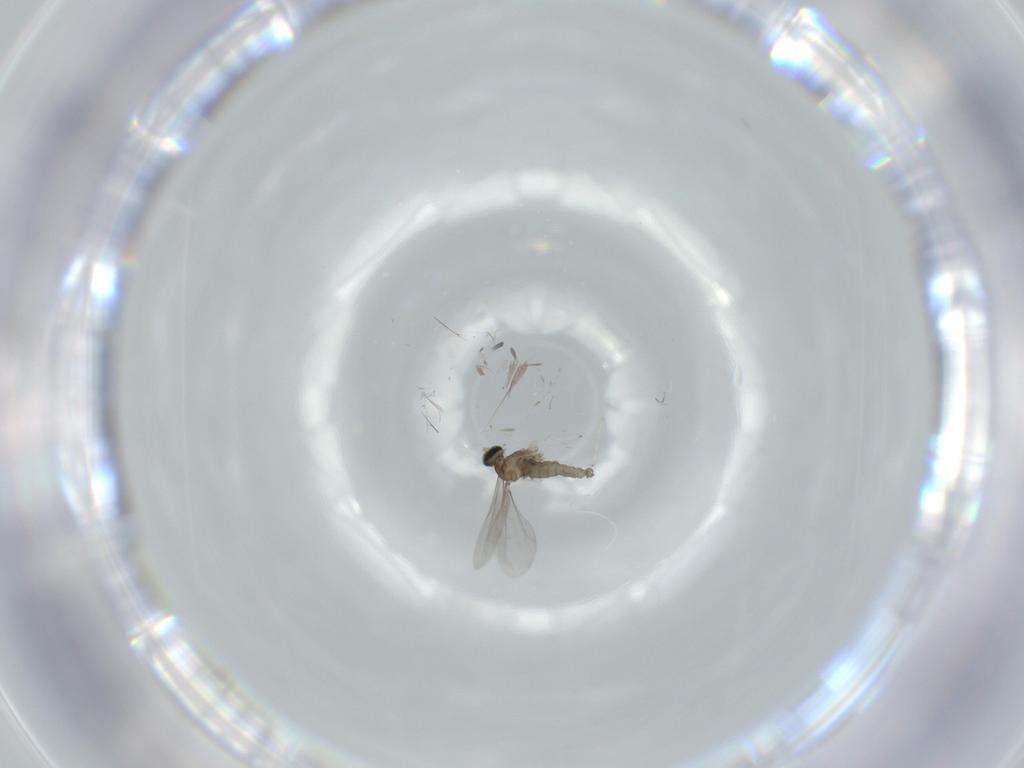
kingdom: Animalia
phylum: Arthropoda
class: Insecta
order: Diptera
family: Cecidomyiidae
